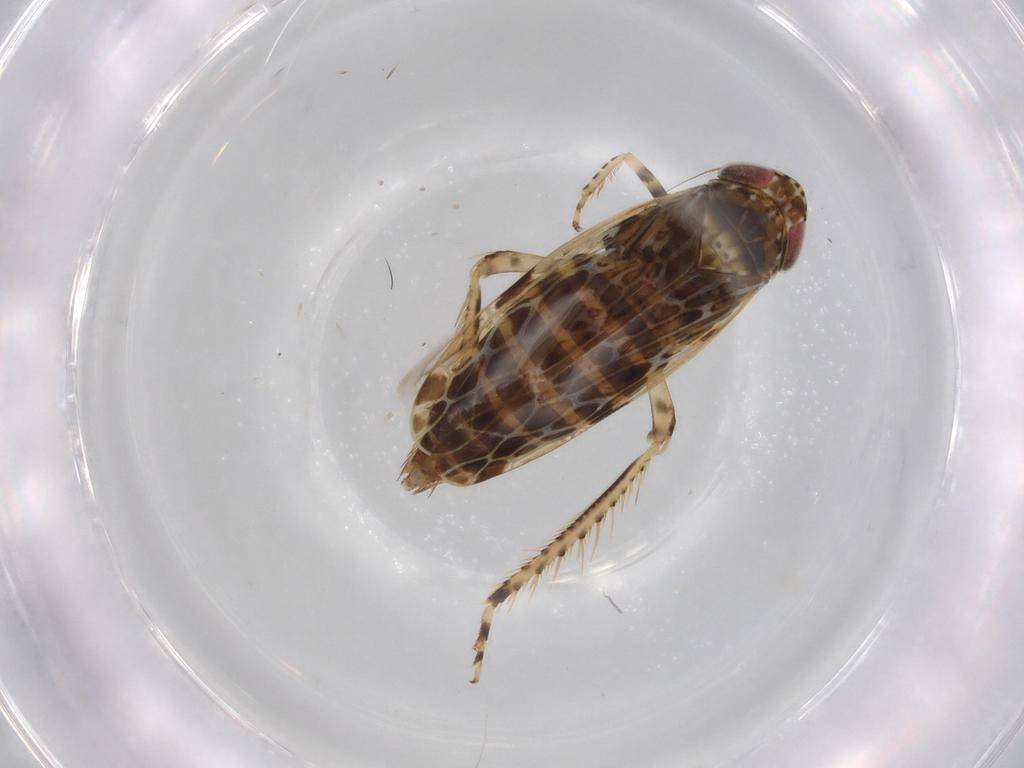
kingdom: Animalia
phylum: Arthropoda
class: Insecta
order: Hemiptera
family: Cicadellidae
